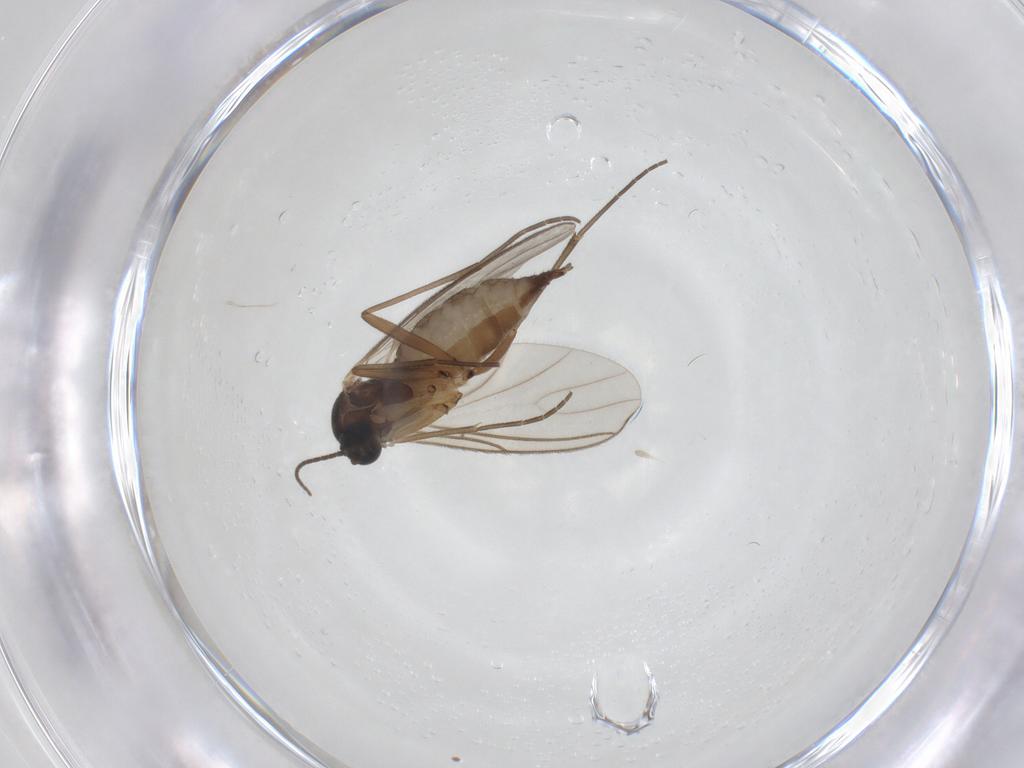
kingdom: Animalia
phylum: Arthropoda
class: Insecta
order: Diptera
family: Sciaridae
